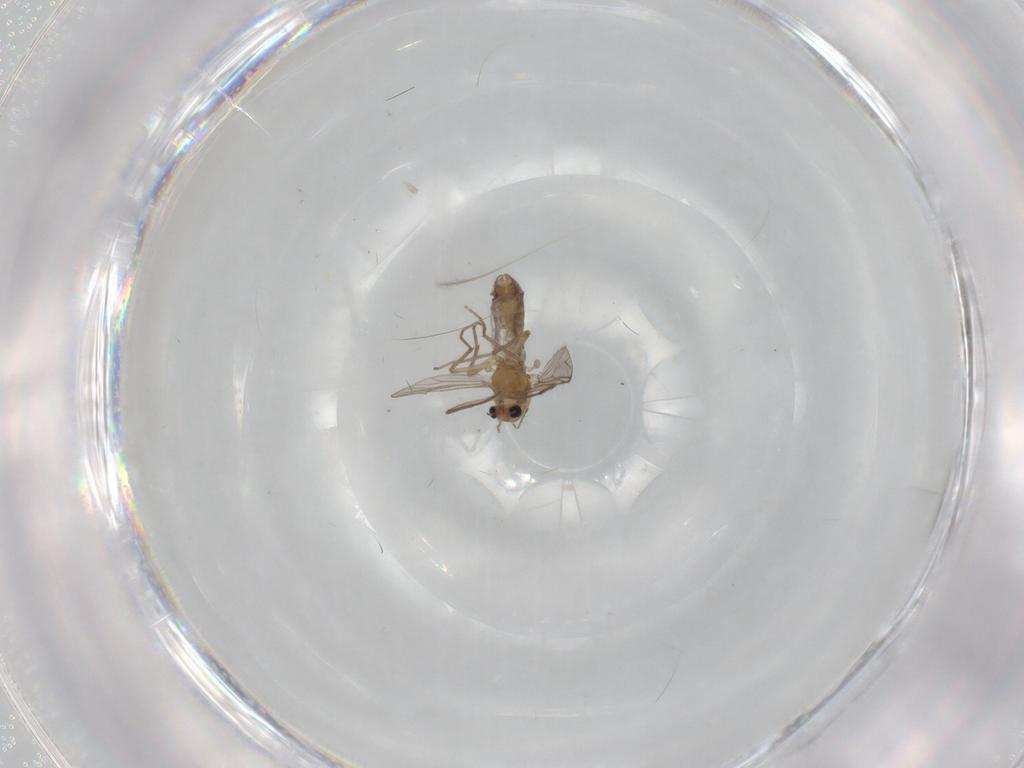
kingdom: Animalia
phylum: Arthropoda
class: Insecta
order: Diptera
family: Chironomidae
